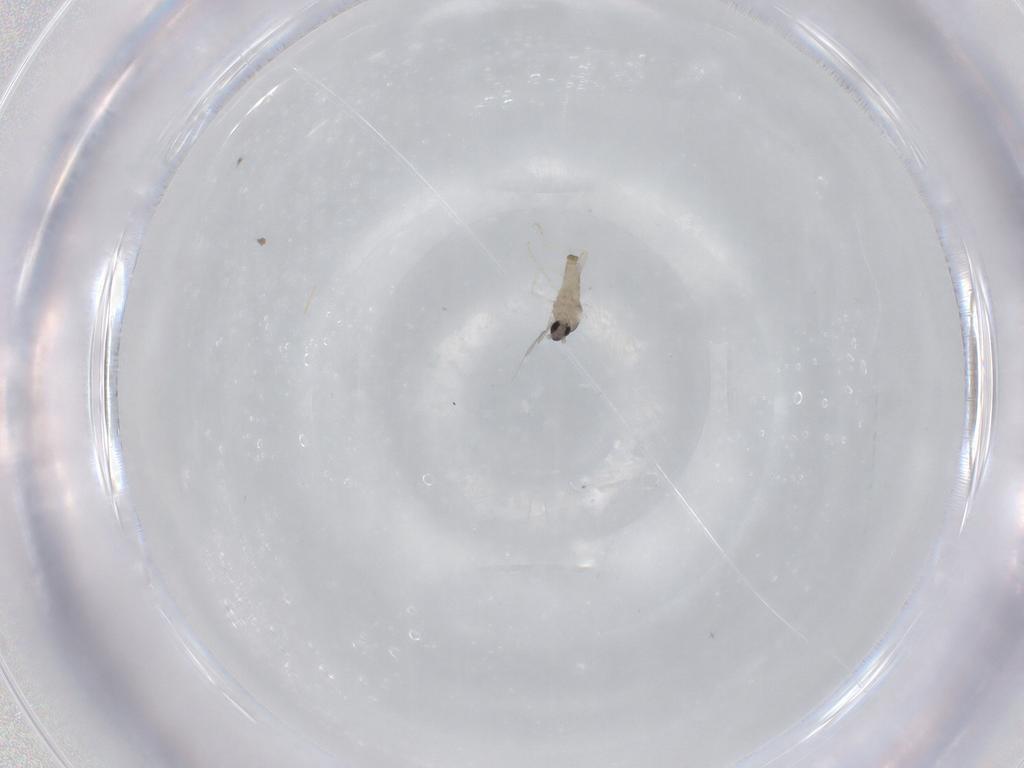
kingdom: Animalia
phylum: Arthropoda
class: Insecta
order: Diptera
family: Cecidomyiidae
